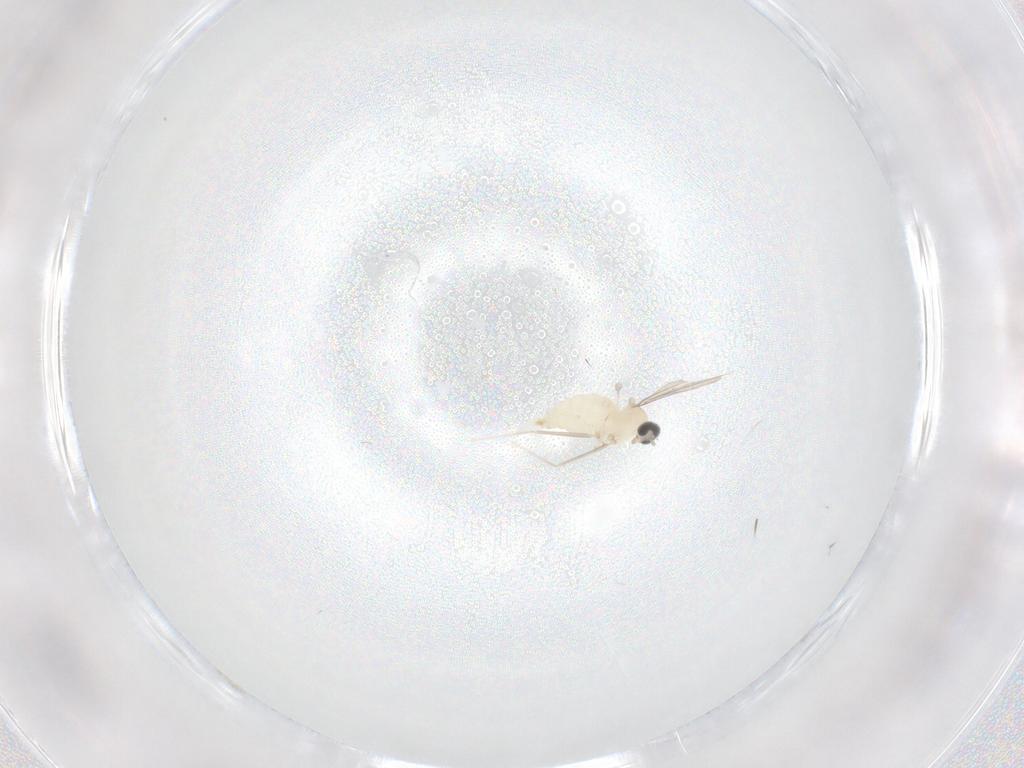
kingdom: Animalia
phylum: Arthropoda
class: Insecta
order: Diptera
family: Cecidomyiidae
